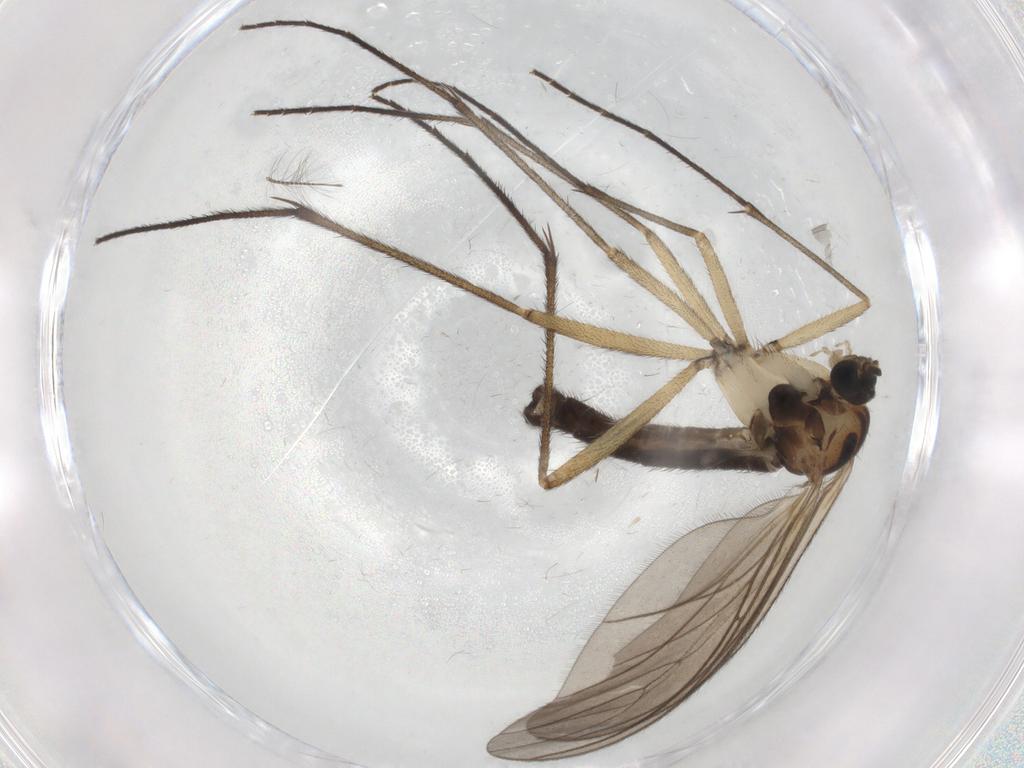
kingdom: Animalia
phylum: Arthropoda
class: Insecta
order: Diptera
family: Sciaridae
